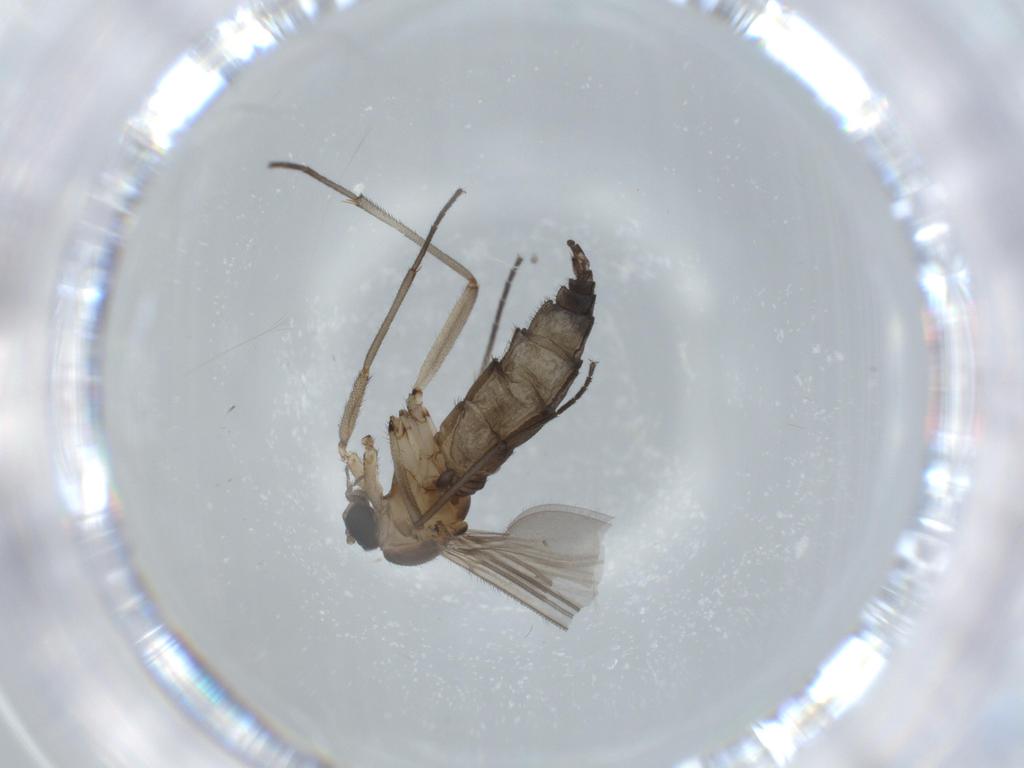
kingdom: Animalia
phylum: Arthropoda
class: Insecta
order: Diptera
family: Sciaridae
